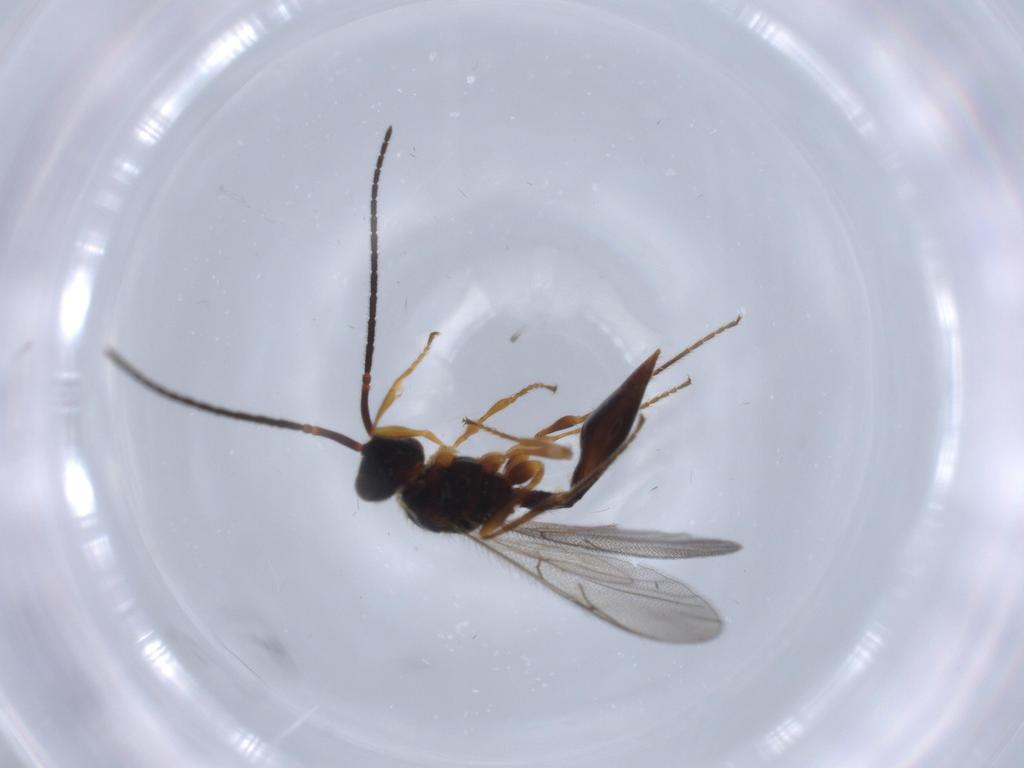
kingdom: Animalia
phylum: Arthropoda
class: Insecta
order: Hymenoptera
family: Diapriidae
